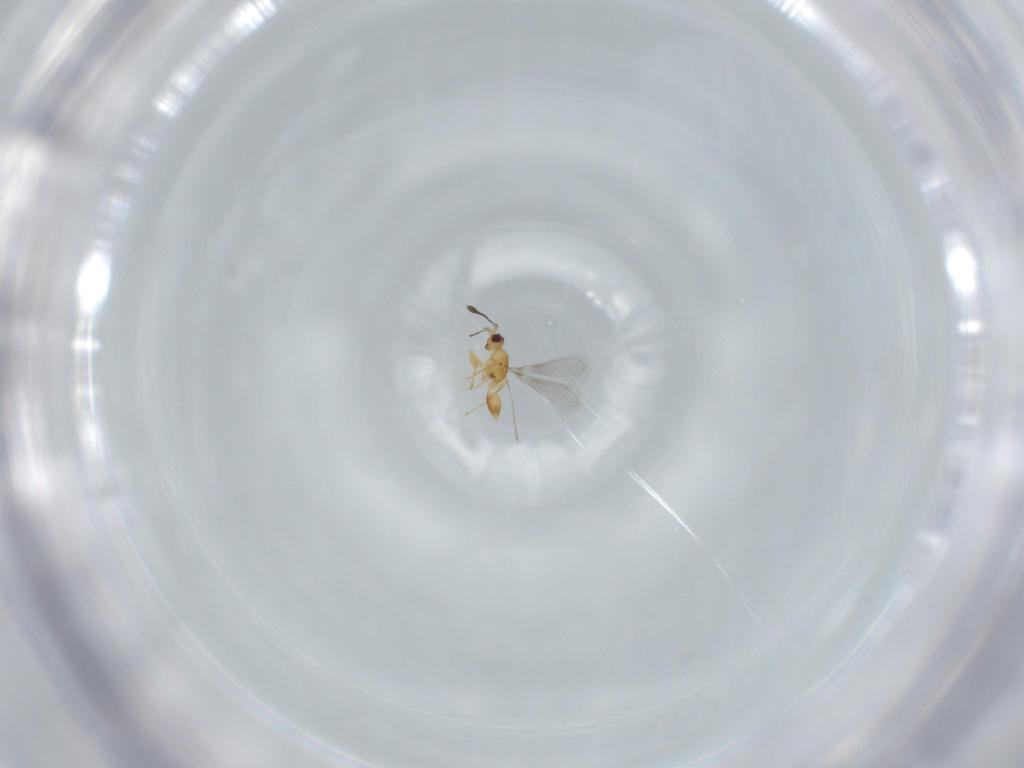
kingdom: Animalia
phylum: Arthropoda
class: Insecta
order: Hymenoptera
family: Mymaridae
